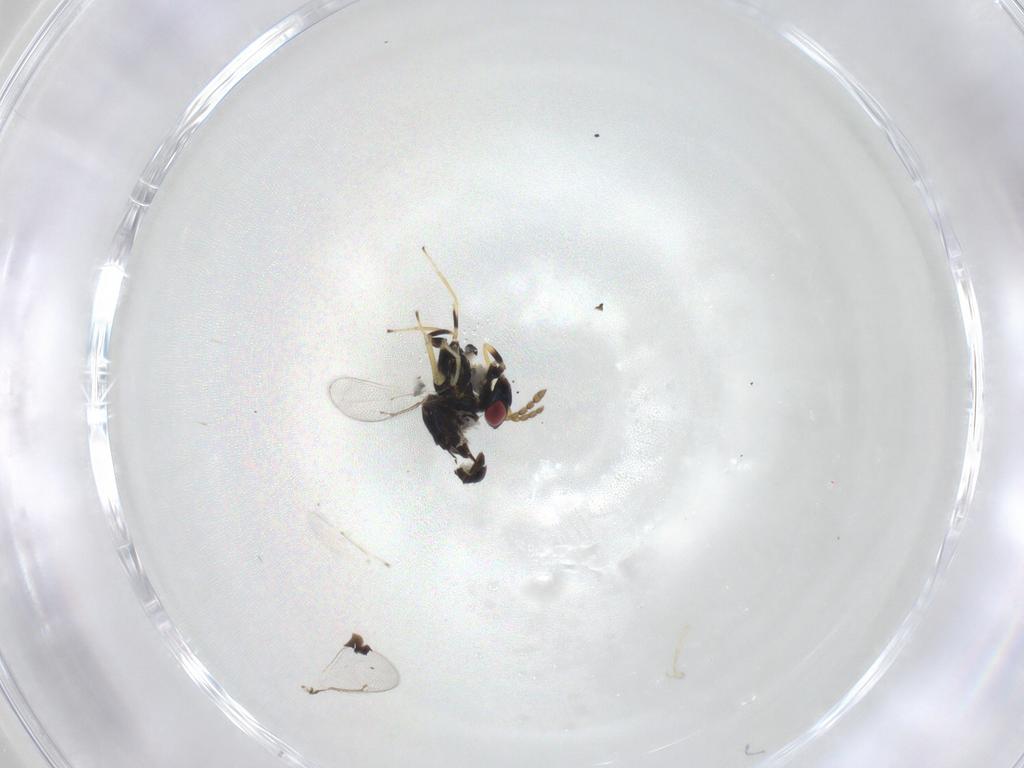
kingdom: Animalia
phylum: Arthropoda
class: Insecta
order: Hymenoptera
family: Eulophidae
